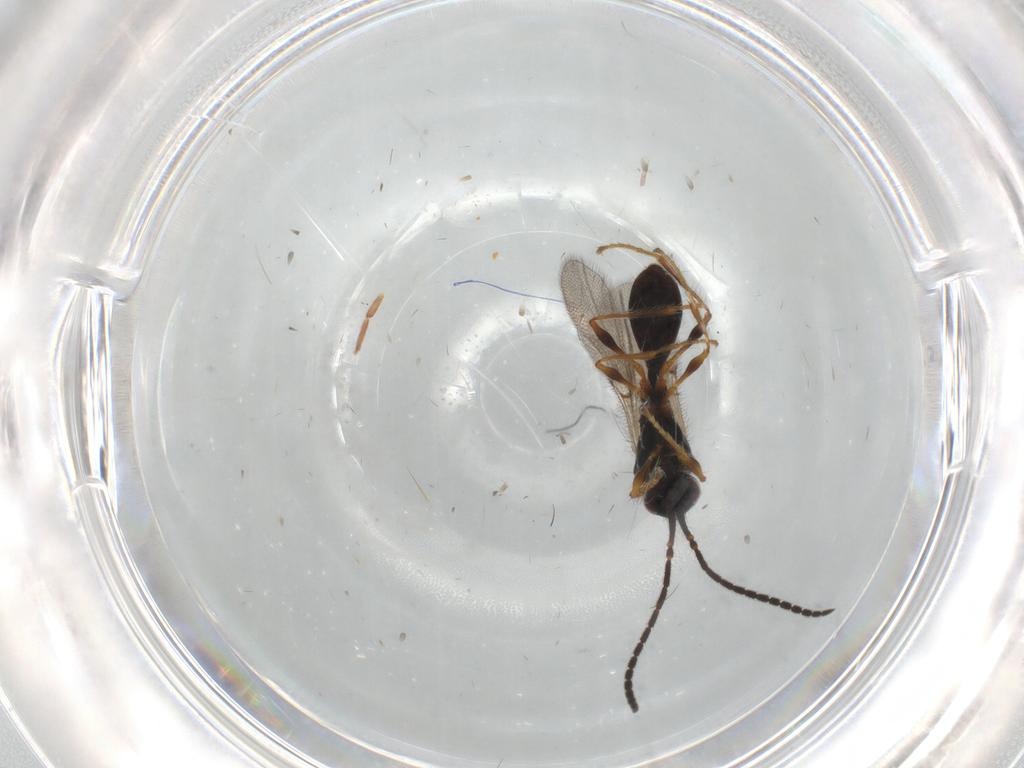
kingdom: Animalia
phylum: Arthropoda
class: Insecta
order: Hymenoptera
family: Diapriidae
